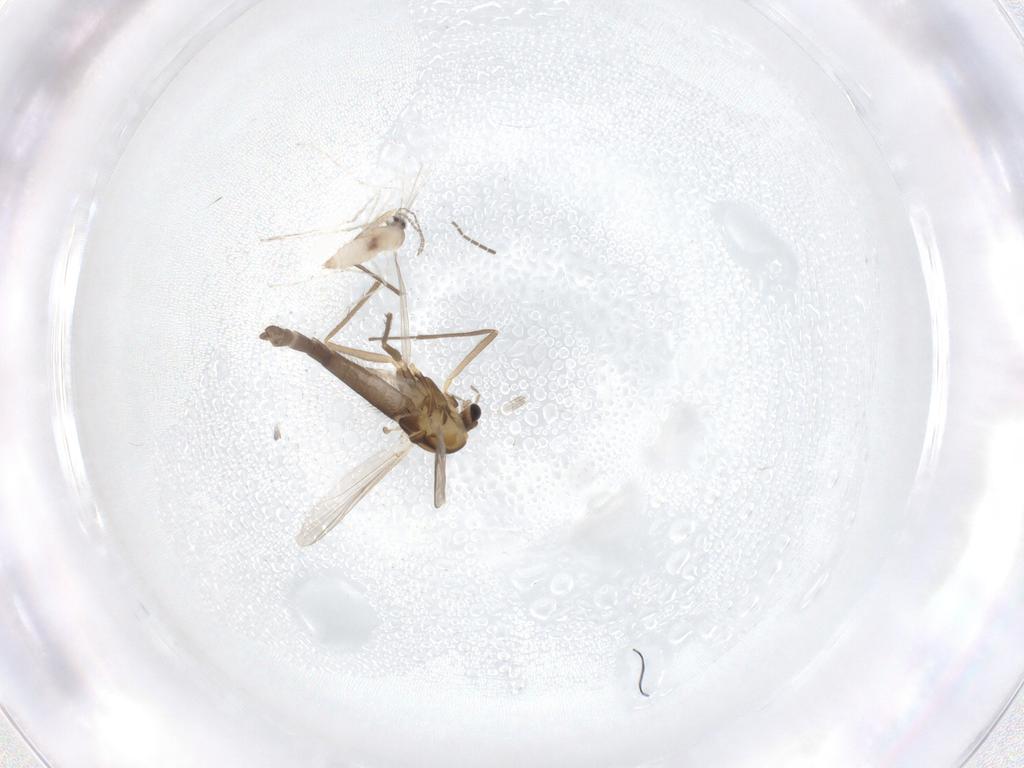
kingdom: Animalia
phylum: Arthropoda
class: Insecta
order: Diptera
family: Chironomidae
